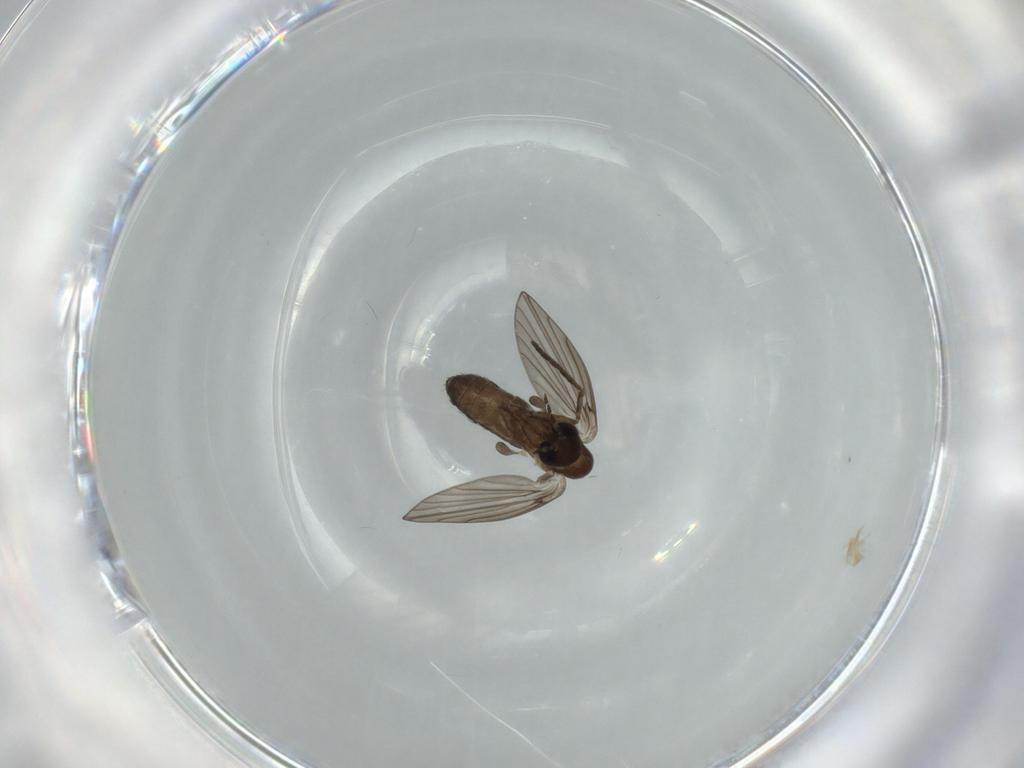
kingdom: Animalia
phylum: Arthropoda
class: Insecta
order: Diptera
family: Psychodidae
